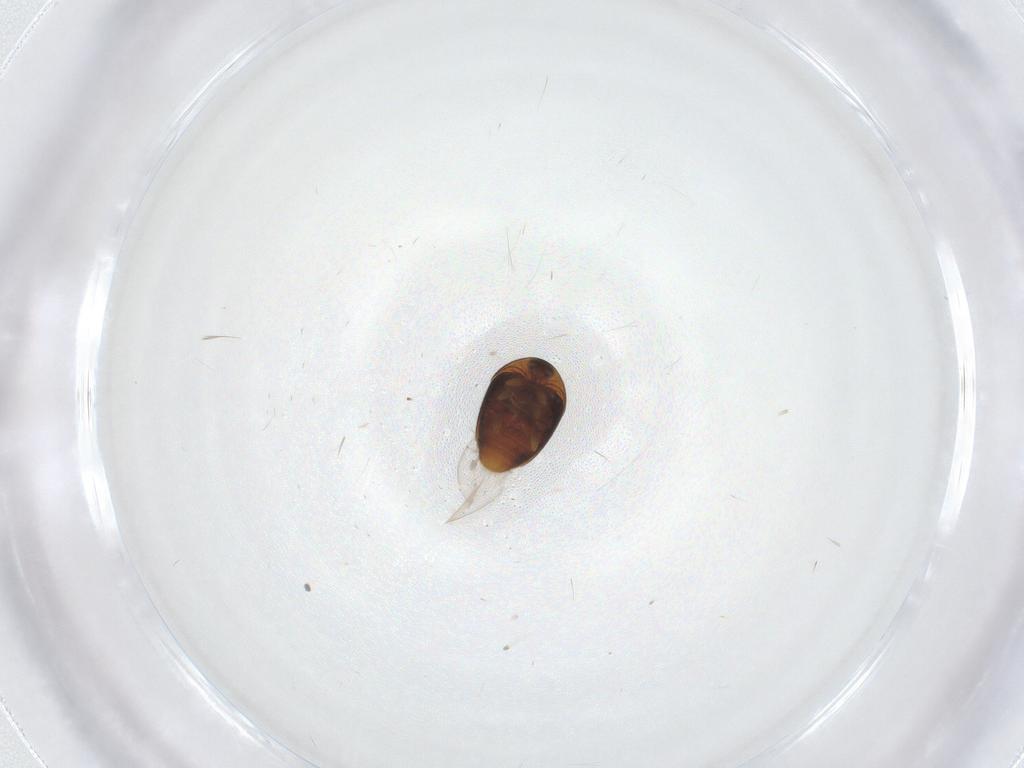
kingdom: Animalia
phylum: Arthropoda
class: Insecta
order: Coleoptera
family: Corylophidae
